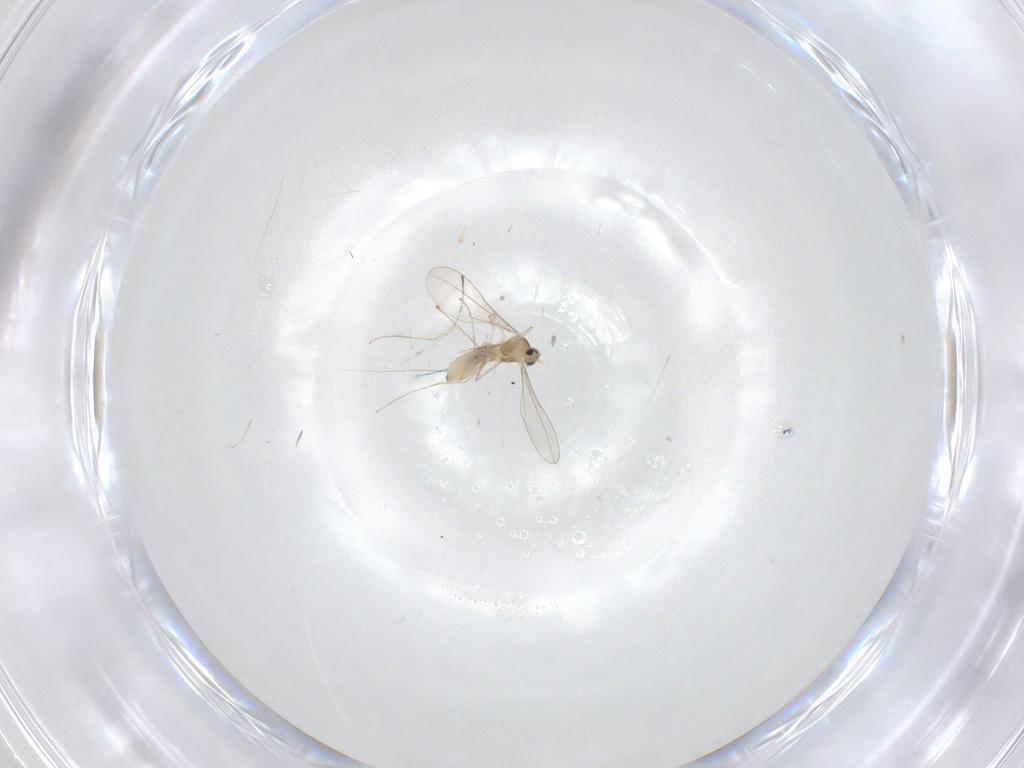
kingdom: Animalia
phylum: Arthropoda
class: Insecta
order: Diptera
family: Cecidomyiidae
